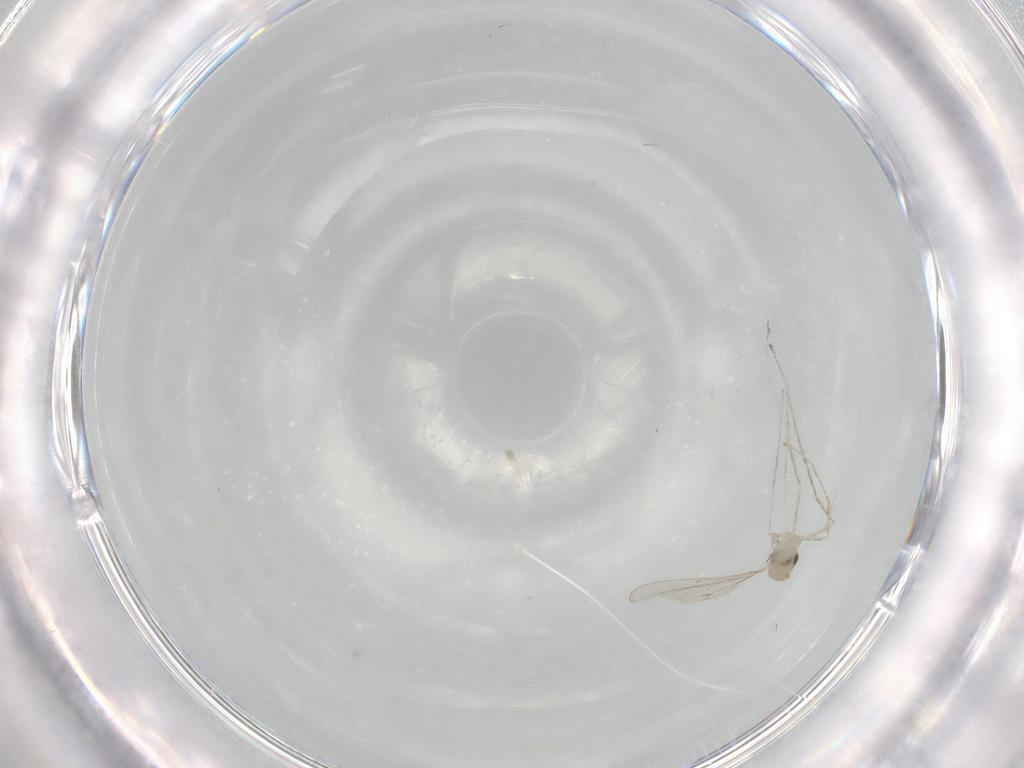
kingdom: Animalia
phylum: Arthropoda
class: Insecta
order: Diptera
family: Cecidomyiidae
